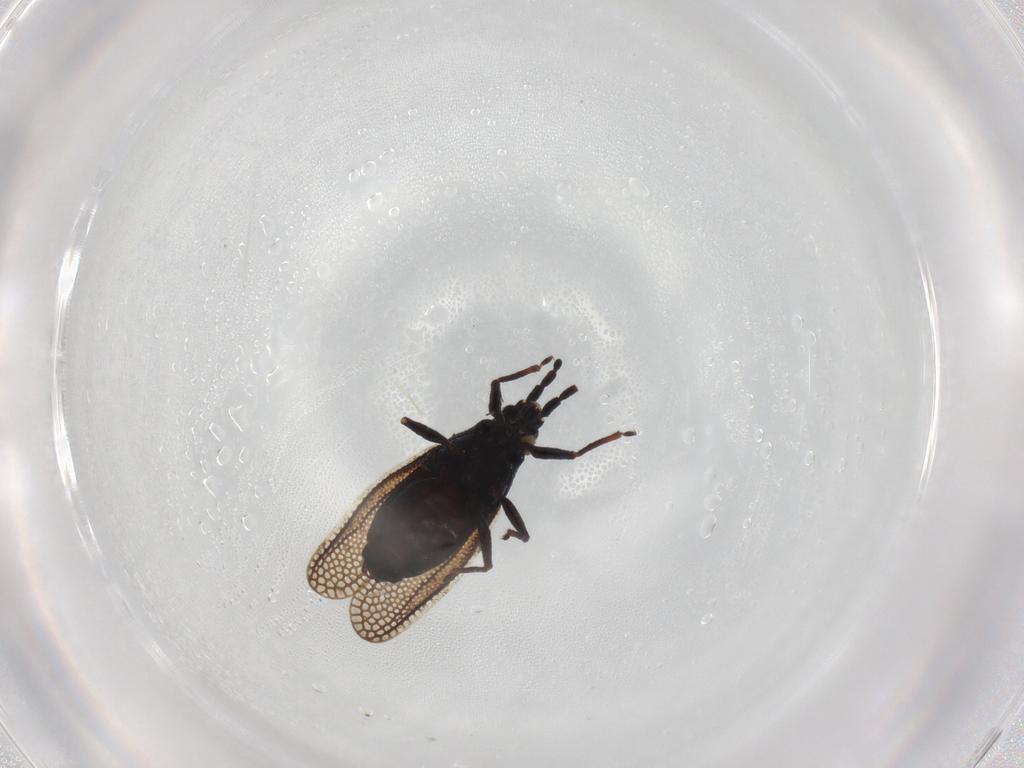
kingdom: Animalia
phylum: Arthropoda
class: Insecta
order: Hemiptera
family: Tingidae
